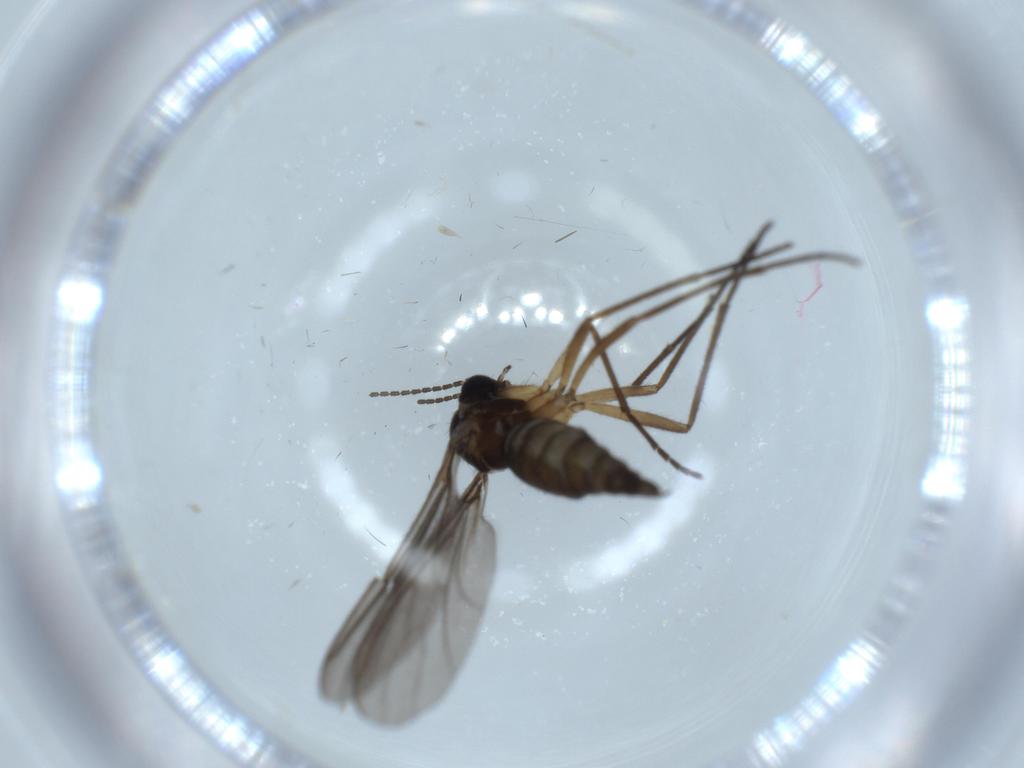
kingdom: Animalia
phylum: Arthropoda
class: Insecta
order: Diptera
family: Sciaridae
